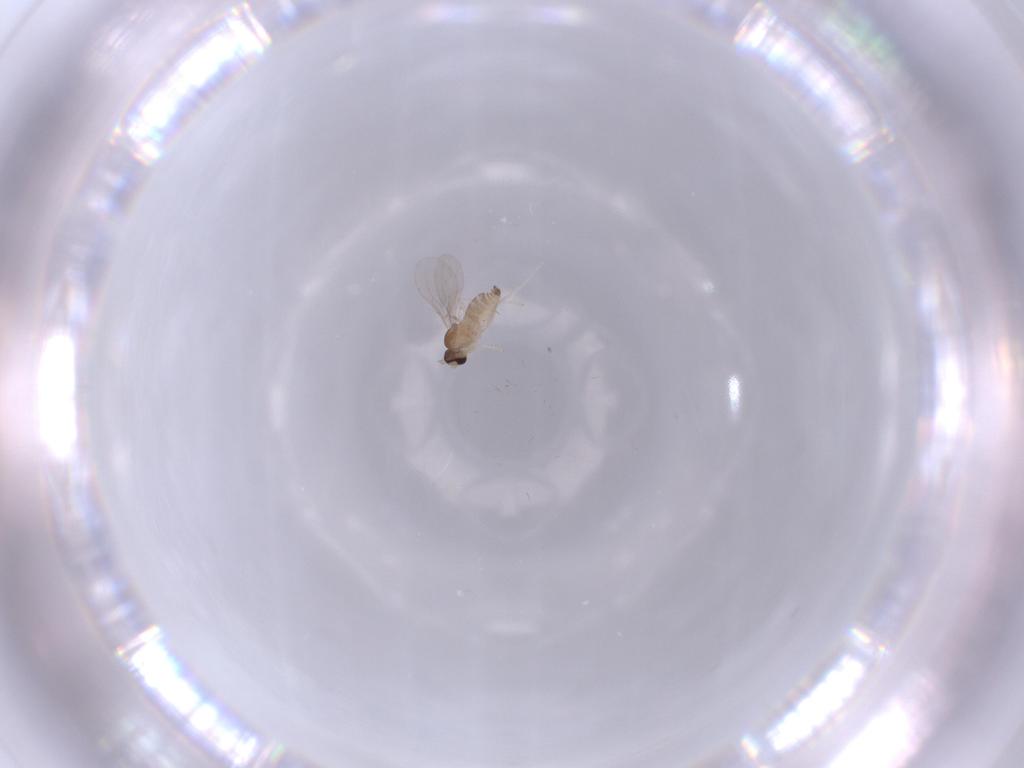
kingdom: Animalia
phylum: Arthropoda
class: Insecta
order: Diptera
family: Cecidomyiidae
